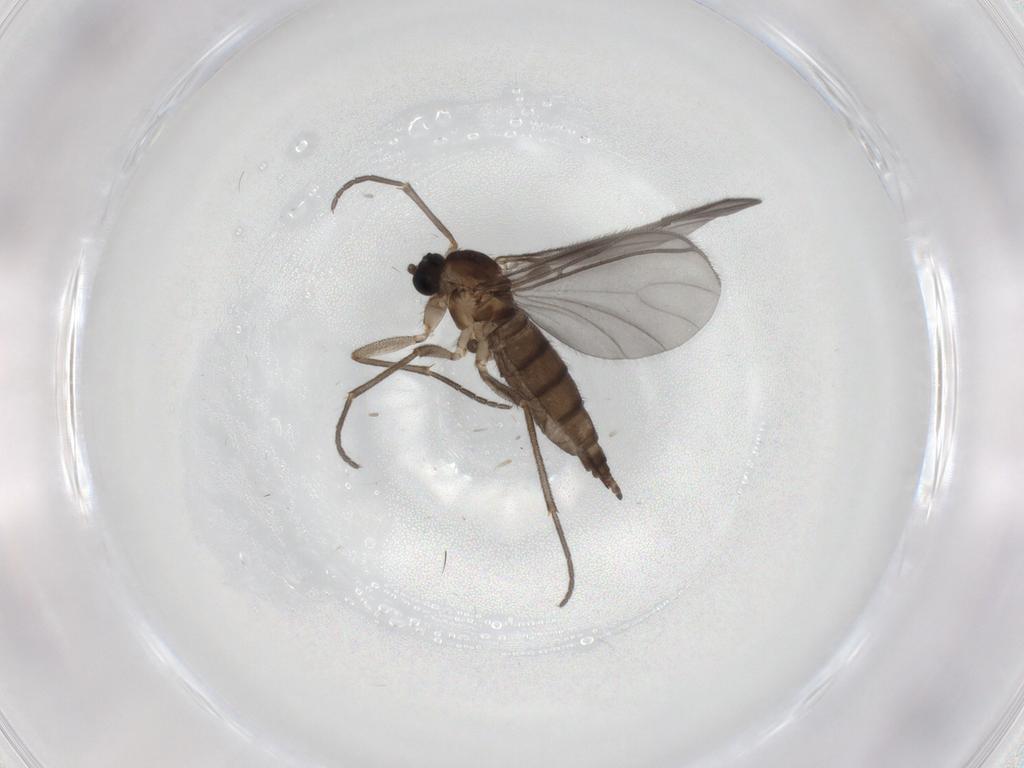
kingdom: Animalia
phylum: Arthropoda
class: Insecta
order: Diptera
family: Sciaridae
